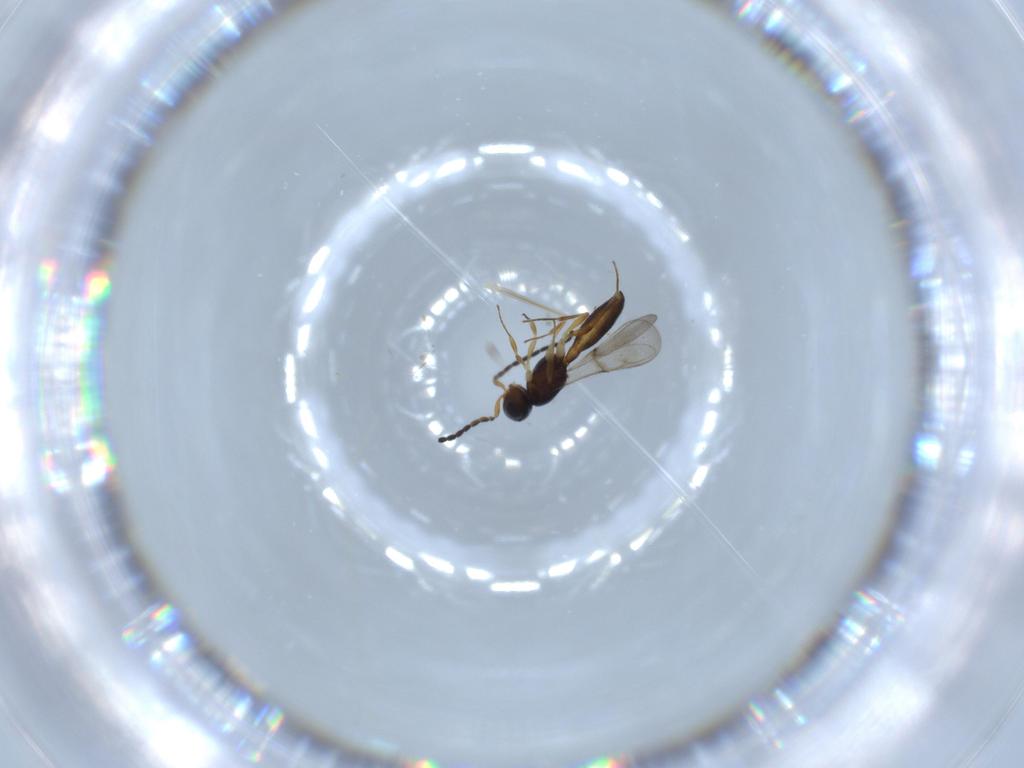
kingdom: Animalia
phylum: Arthropoda
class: Insecta
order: Hymenoptera
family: Scelionidae
